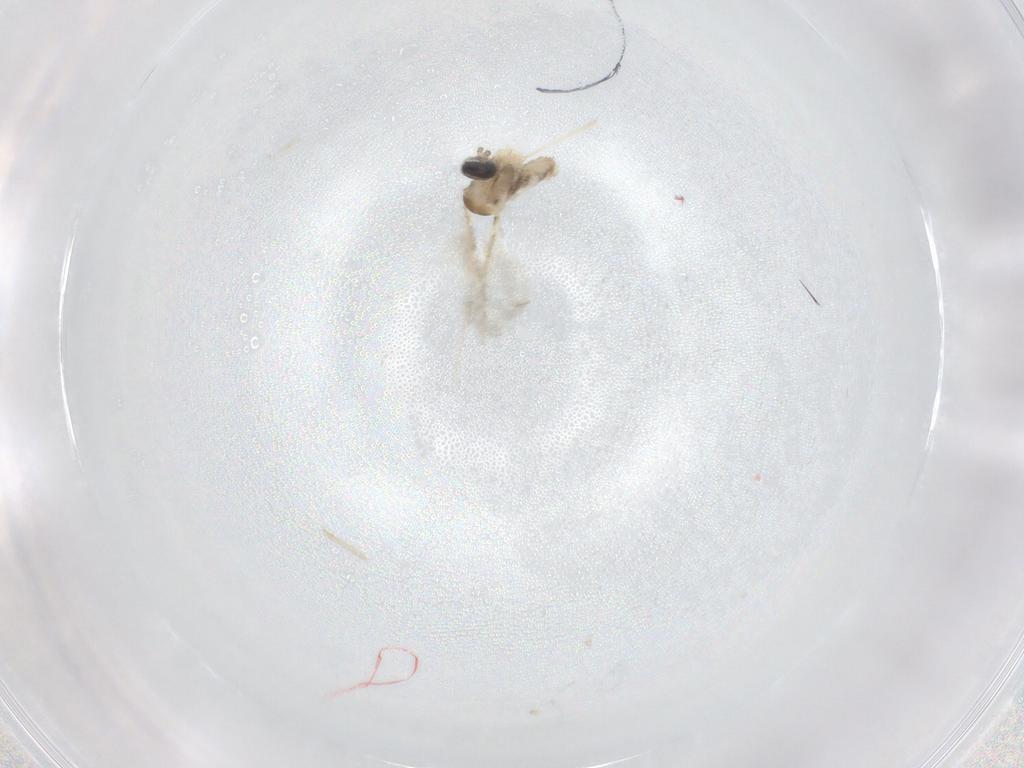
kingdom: Animalia
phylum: Arthropoda
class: Insecta
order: Diptera
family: Cecidomyiidae
